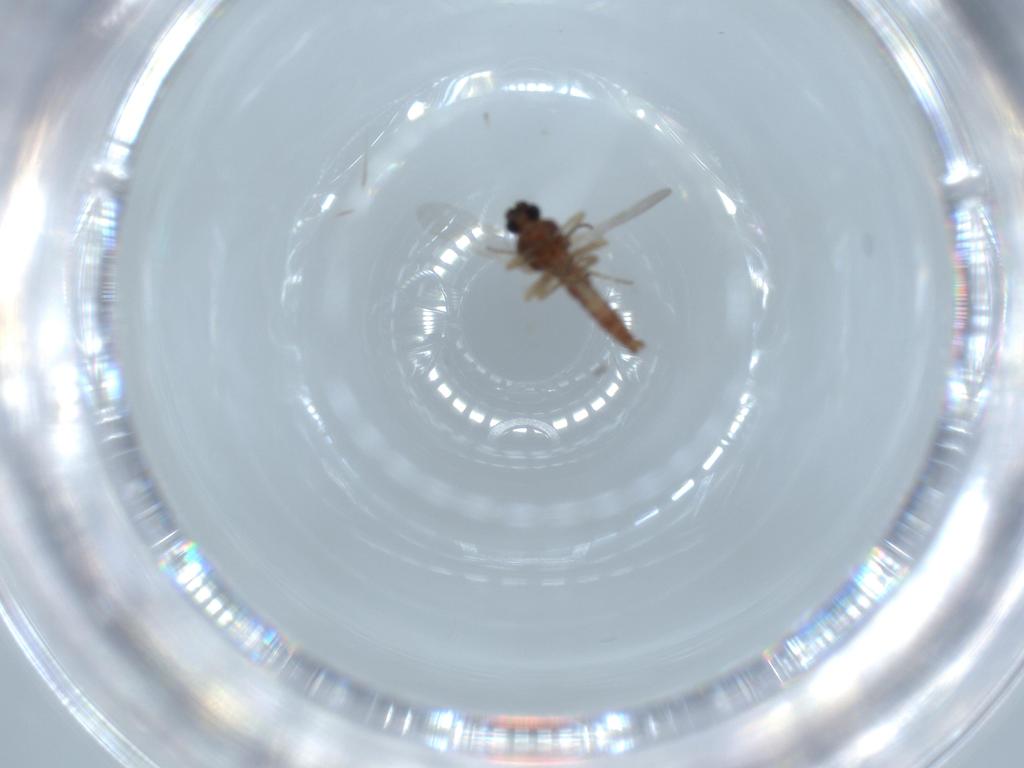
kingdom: Animalia
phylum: Arthropoda
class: Insecta
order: Diptera
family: Ceratopogonidae
